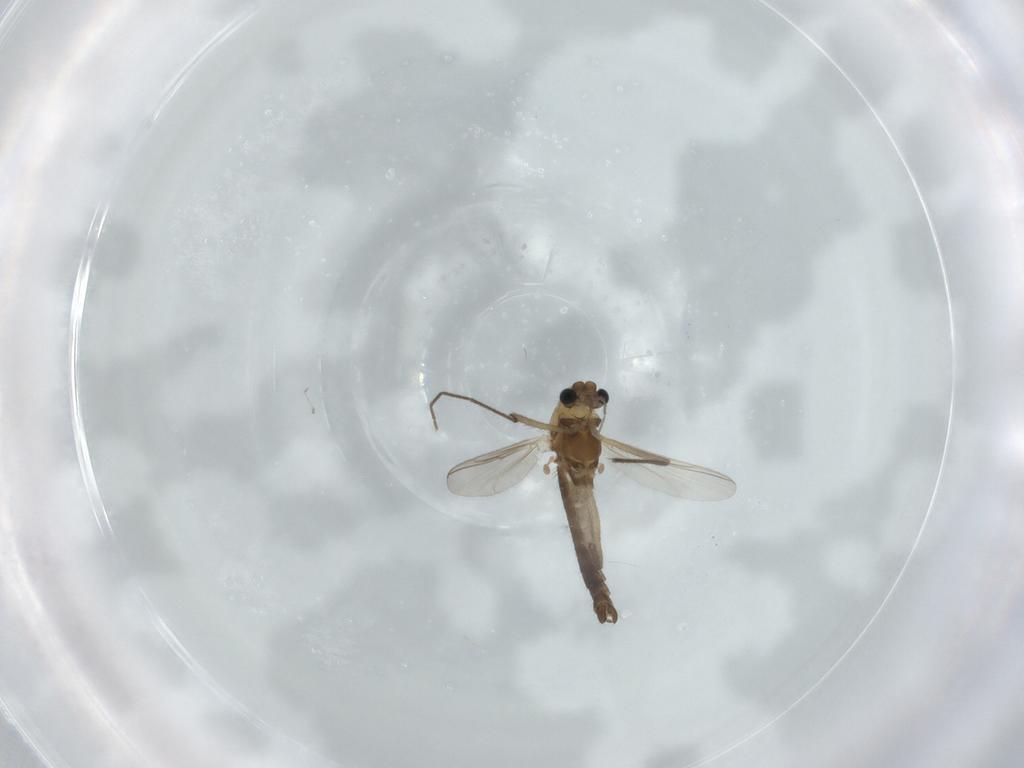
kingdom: Animalia
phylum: Arthropoda
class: Insecta
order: Diptera
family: Chironomidae
